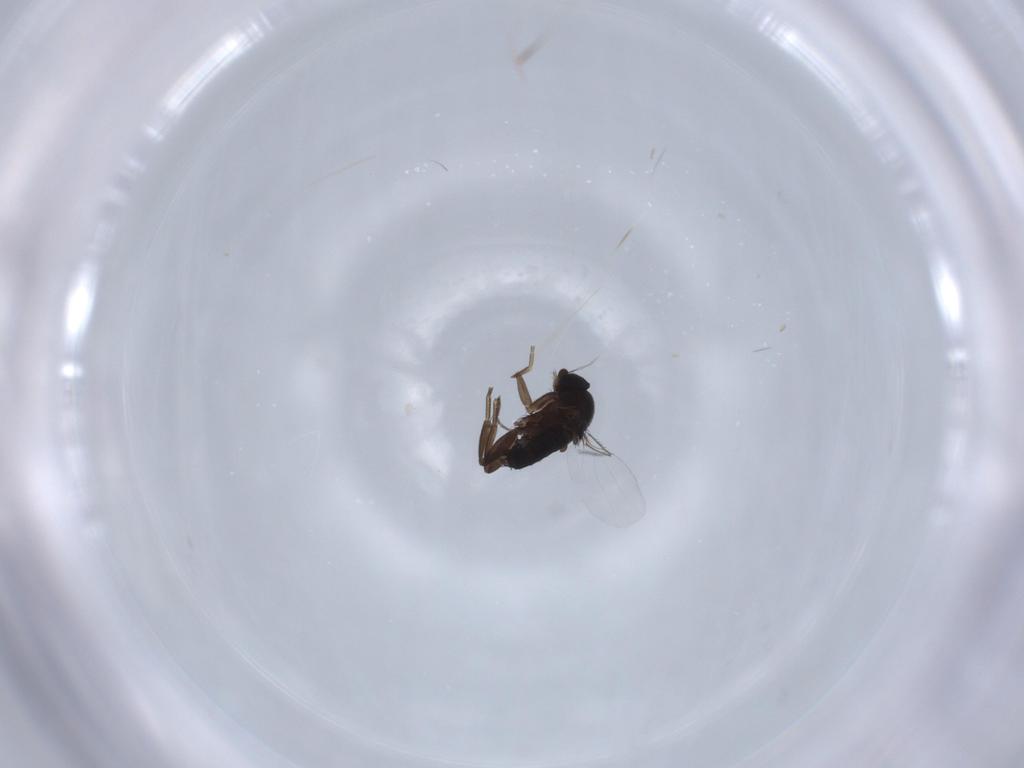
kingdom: Animalia
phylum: Arthropoda
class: Insecta
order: Diptera
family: Phoridae
